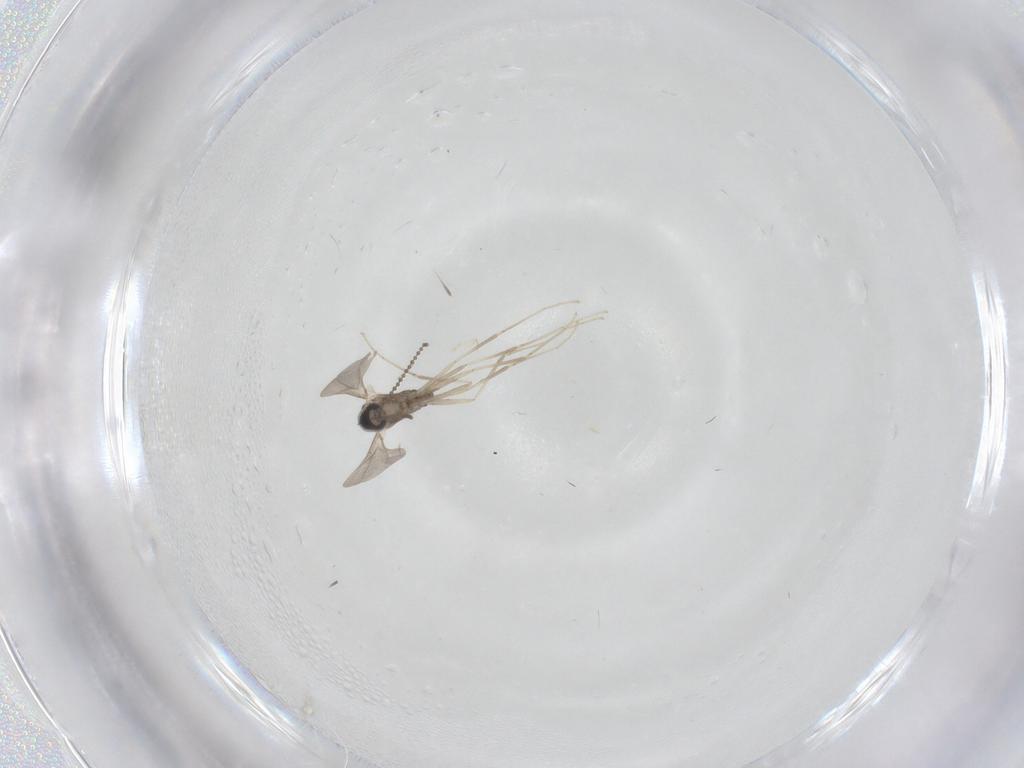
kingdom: Animalia
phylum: Arthropoda
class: Insecta
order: Diptera
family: Cecidomyiidae
